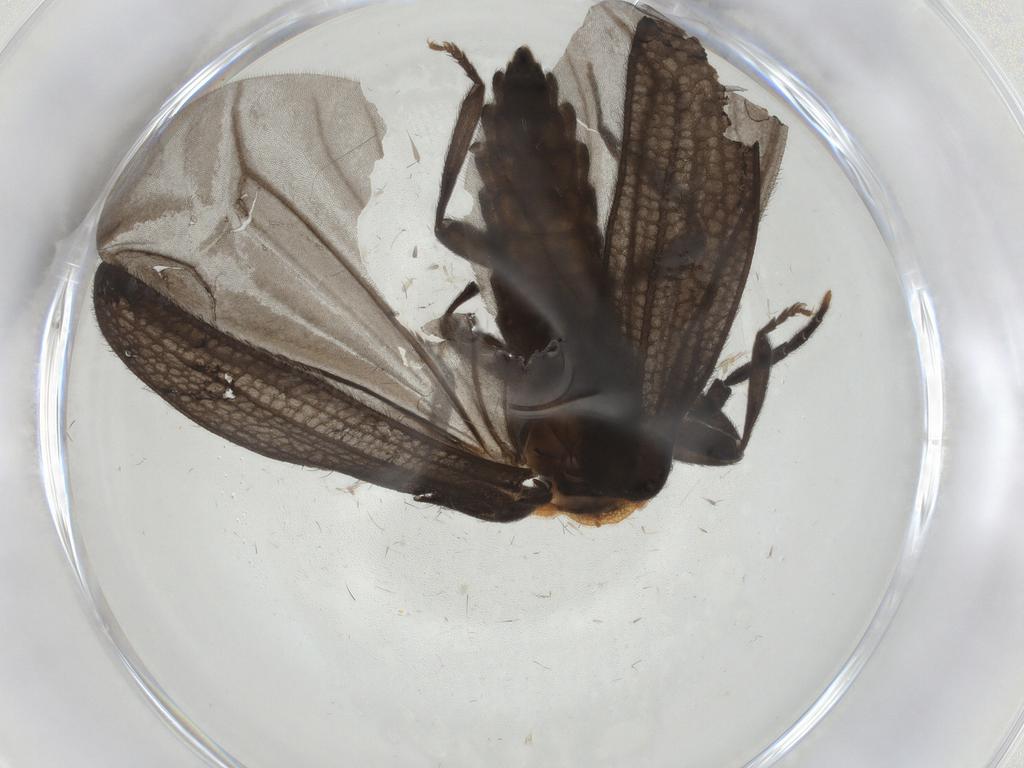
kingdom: Animalia
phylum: Arthropoda
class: Insecta
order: Coleoptera
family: Lycidae
